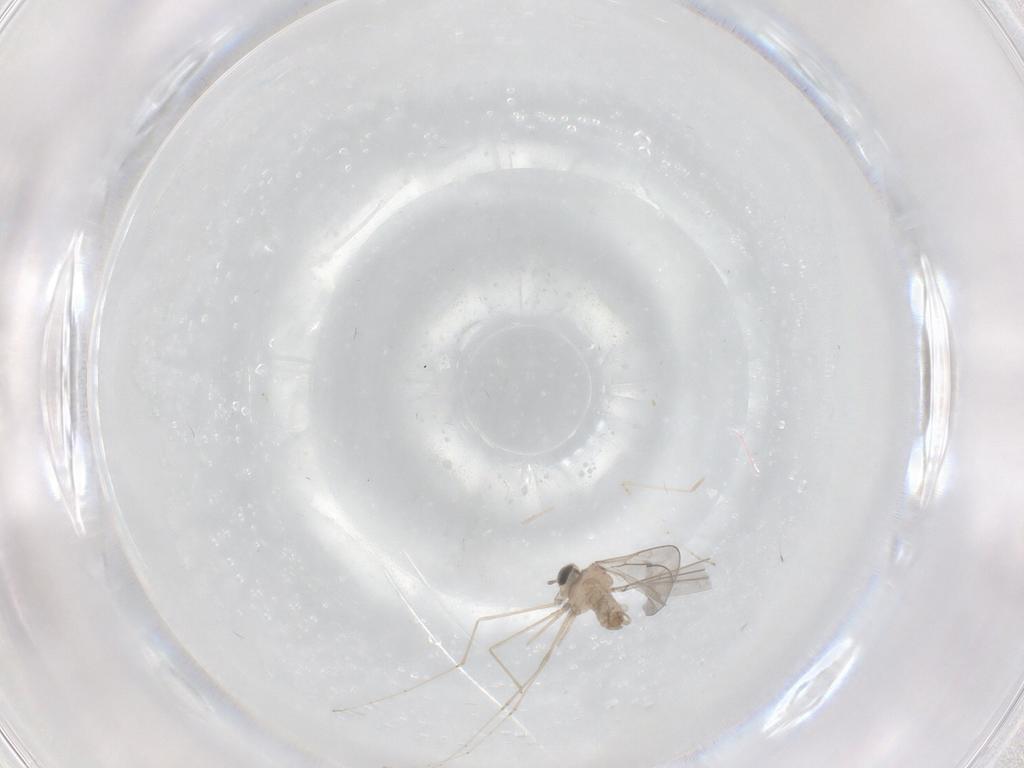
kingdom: Animalia
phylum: Arthropoda
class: Insecta
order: Diptera
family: Cecidomyiidae
